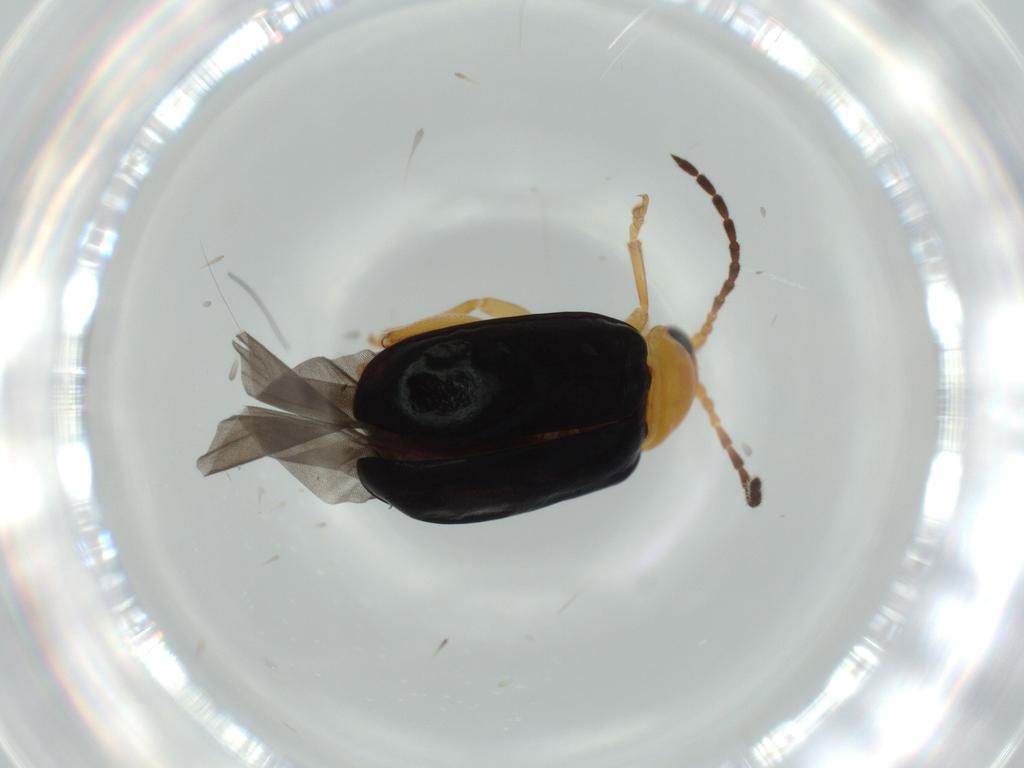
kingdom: Animalia
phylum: Arthropoda
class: Insecta
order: Coleoptera
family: Chrysomelidae
